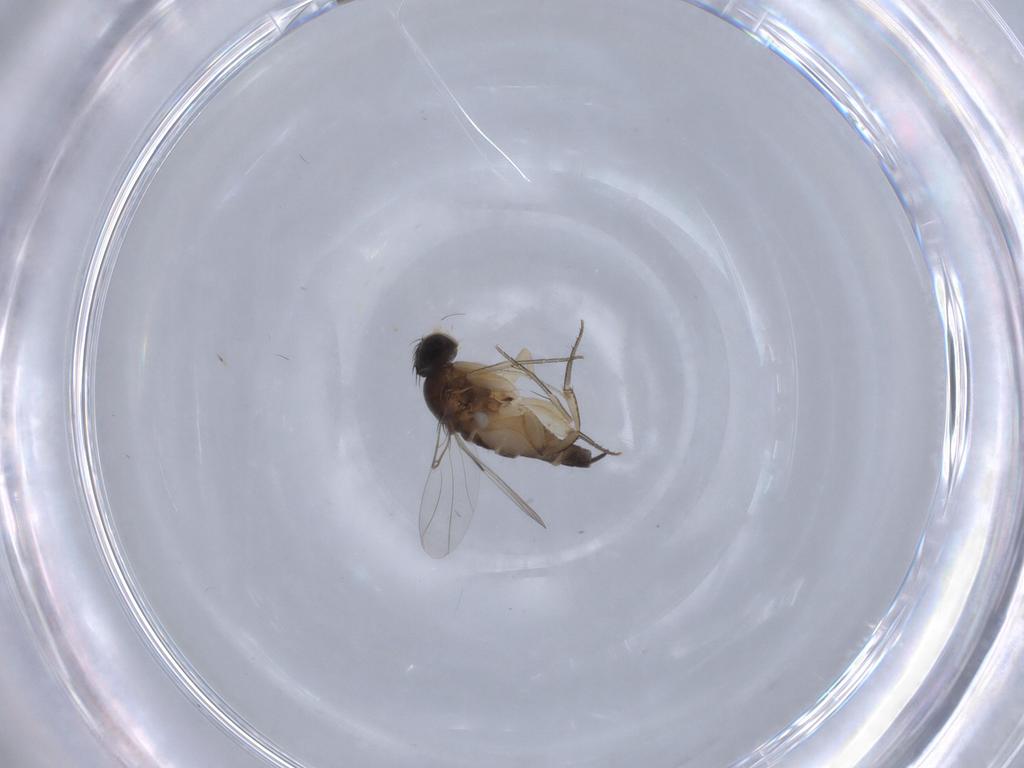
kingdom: Animalia
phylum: Arthropoda
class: Insecta
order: Diptera
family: Phoridae
